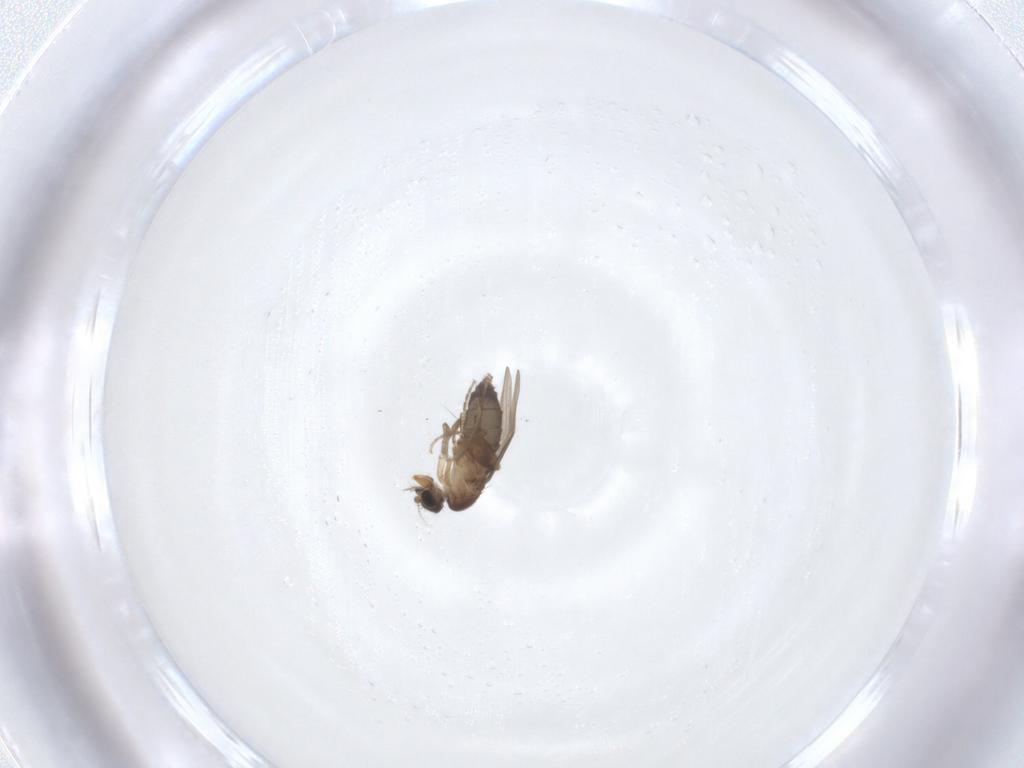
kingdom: Animalia
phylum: Arthropoda
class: Insecta
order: Diptera
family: Phoridae
